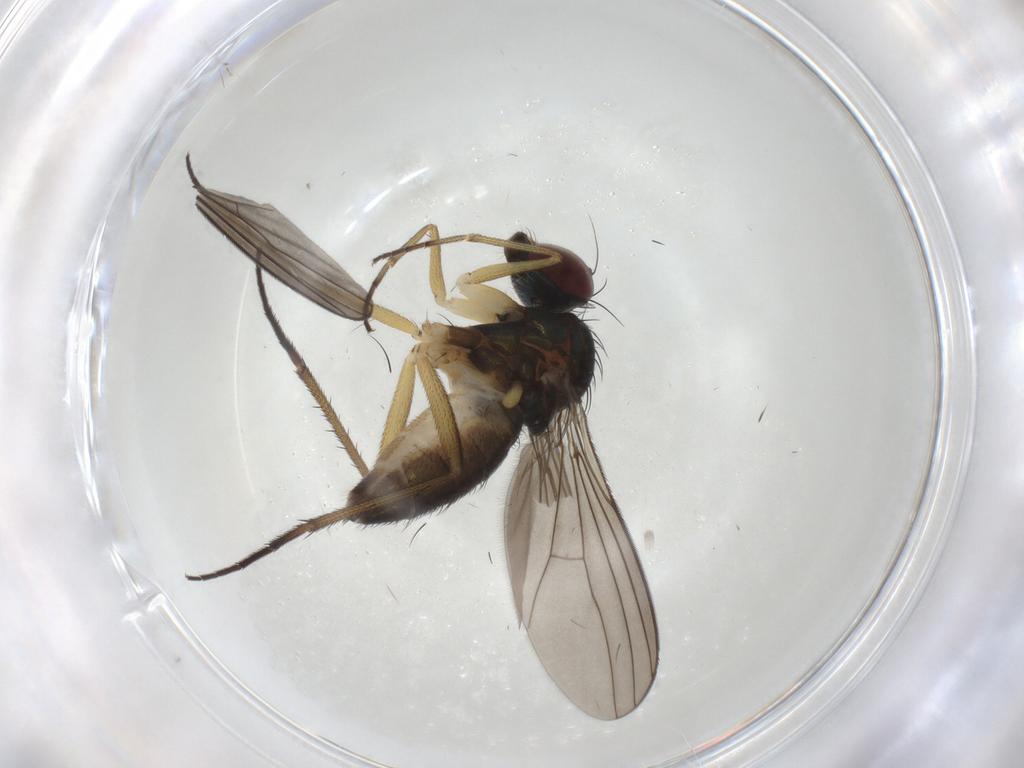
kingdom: Animalia
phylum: Arthropoda
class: Insecta
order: Diptera
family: Dolichopodidae
